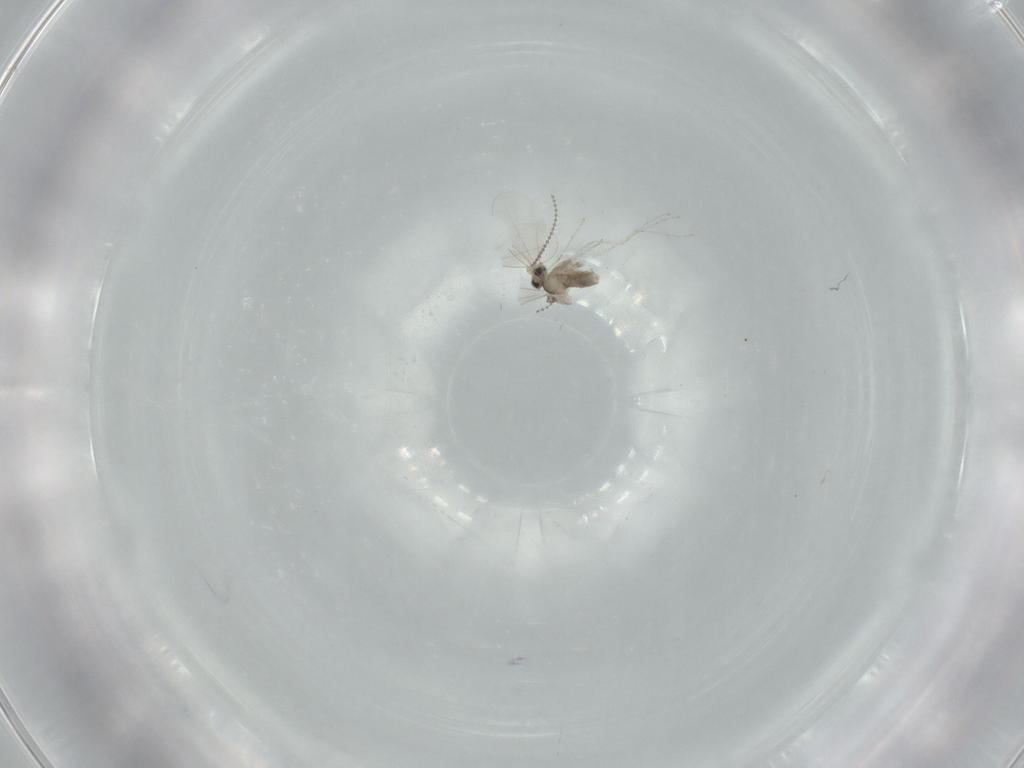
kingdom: Animalia
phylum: Arthropoda
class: Insecta
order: Diptera
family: Cecidomyiidae
